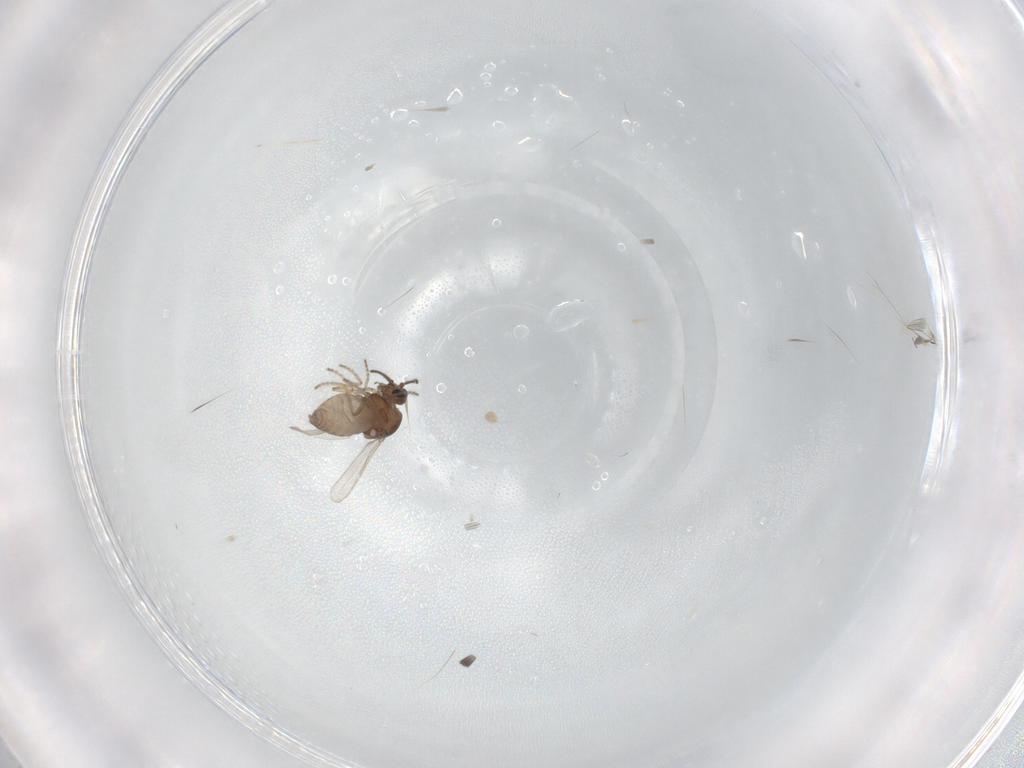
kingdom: Animalia
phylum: Arthropoda
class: Insecta
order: Diptera
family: Ceratopogonidae
